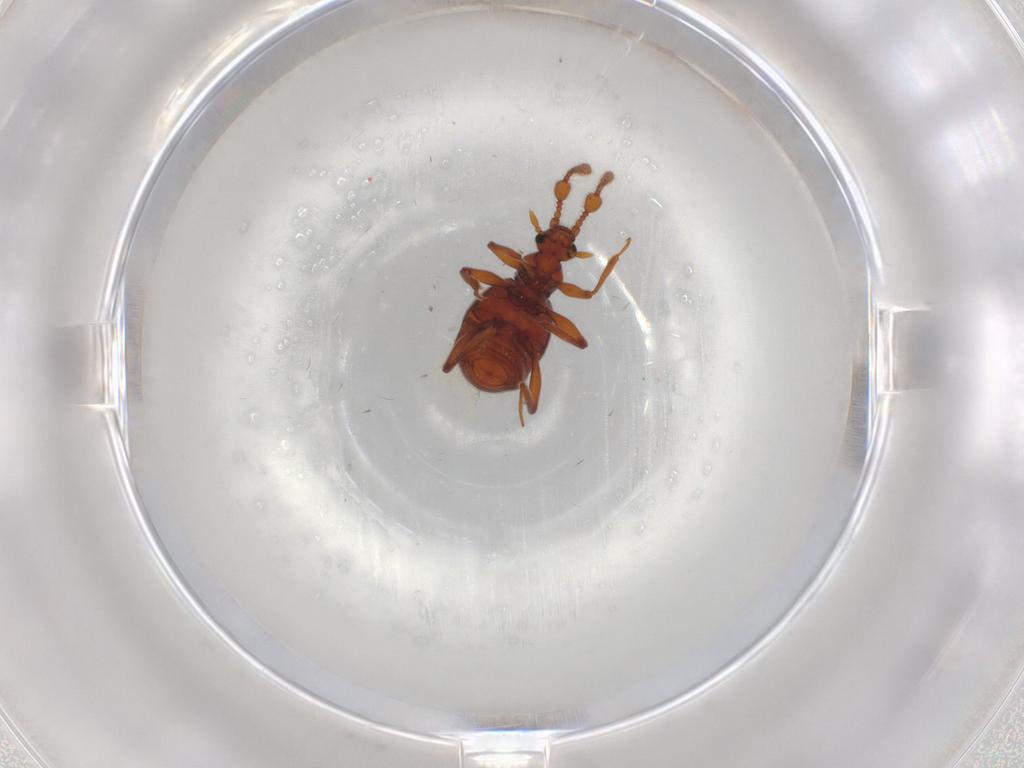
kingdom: Animalia
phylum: Arthropoda
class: Insecta
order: Coleoptera
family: Staphylinidae
